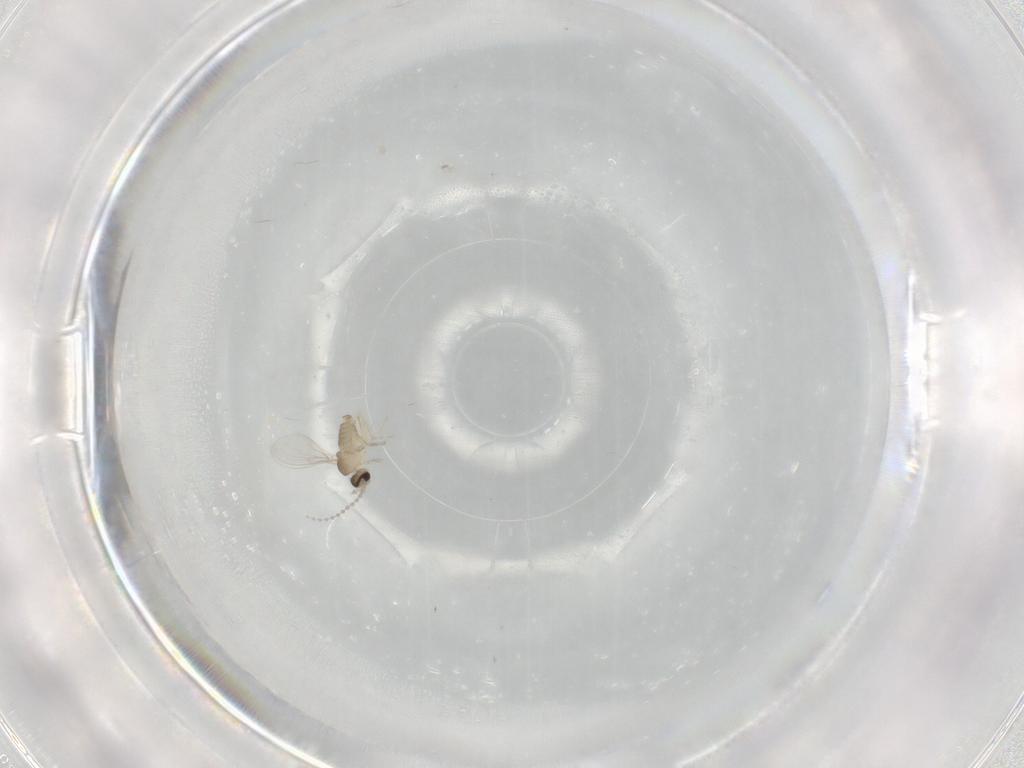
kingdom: Animalia
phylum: Arthropoda
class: Insecta
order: Diptera
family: Cecidomyiidae
